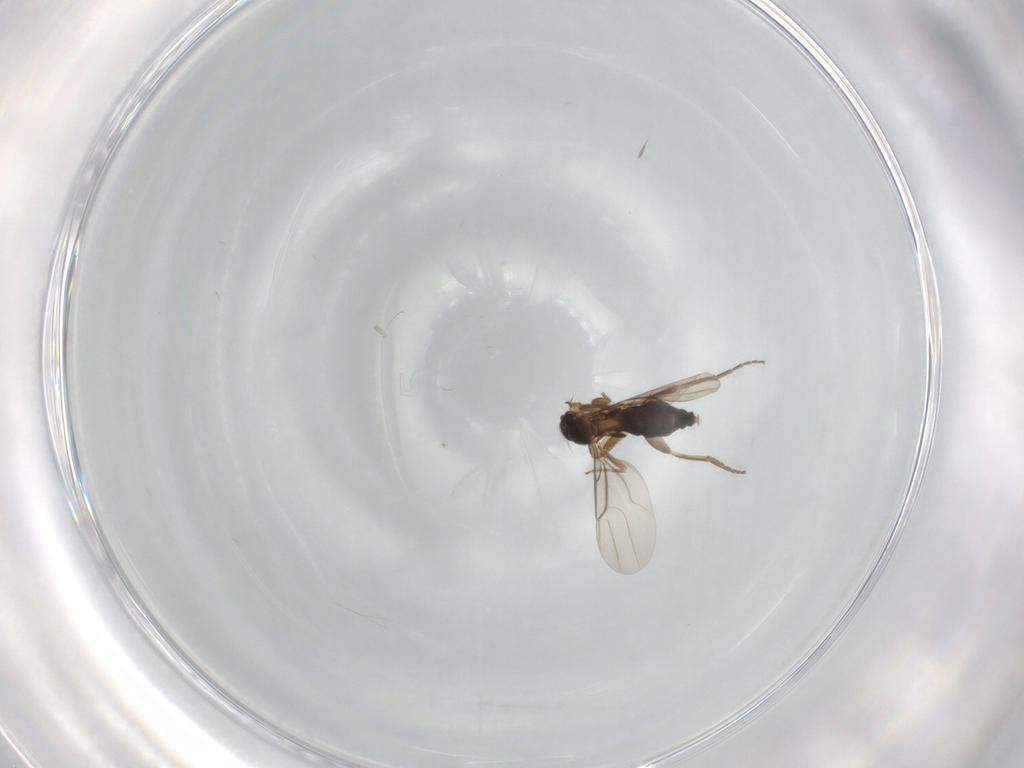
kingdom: Animalia
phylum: Arthropoda
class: Insecta
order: Diptera
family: Phoridae
